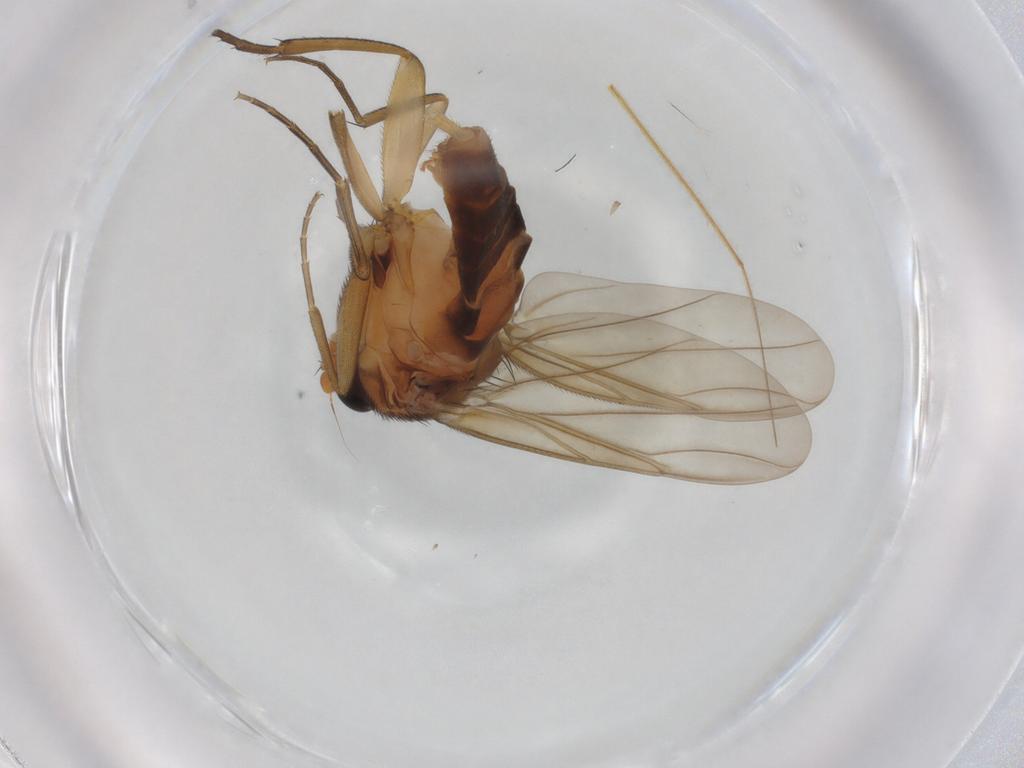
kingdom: Animalia
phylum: Arthropoda
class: Insecta
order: Diptera
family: Phoridae
